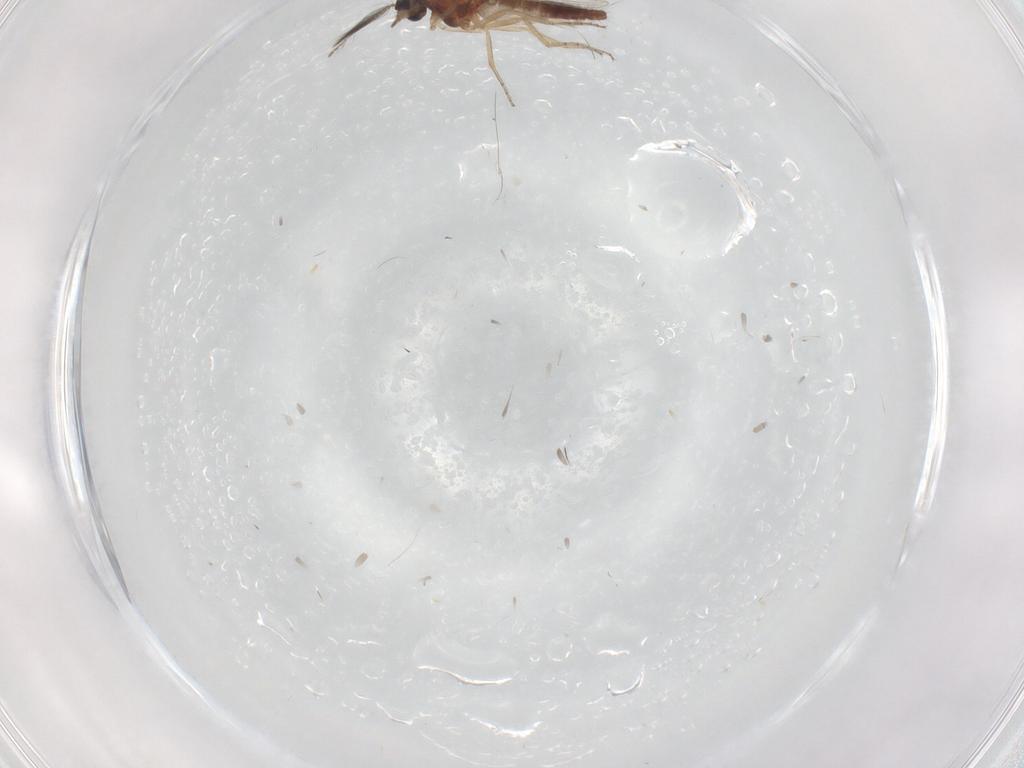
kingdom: Animalia
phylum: Arthropoda
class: Insecta
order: Diptera
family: Ceratopogonidae
